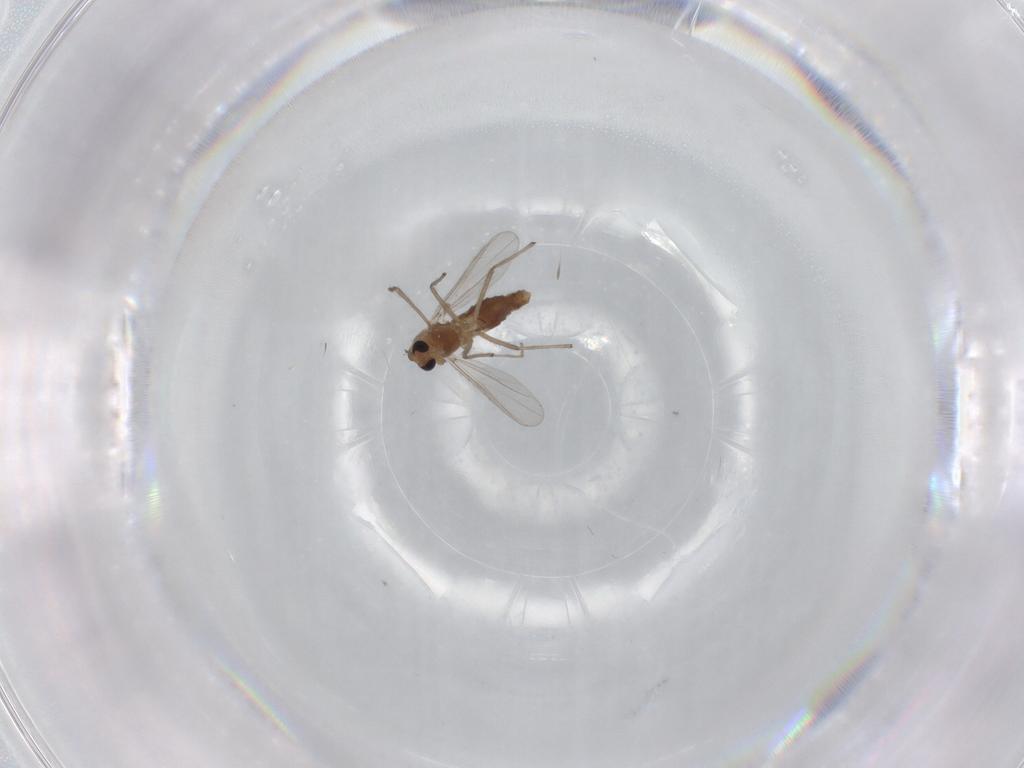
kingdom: Animalia
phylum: Arthropoda
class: Insecta
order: Diptera
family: Chironomidae
